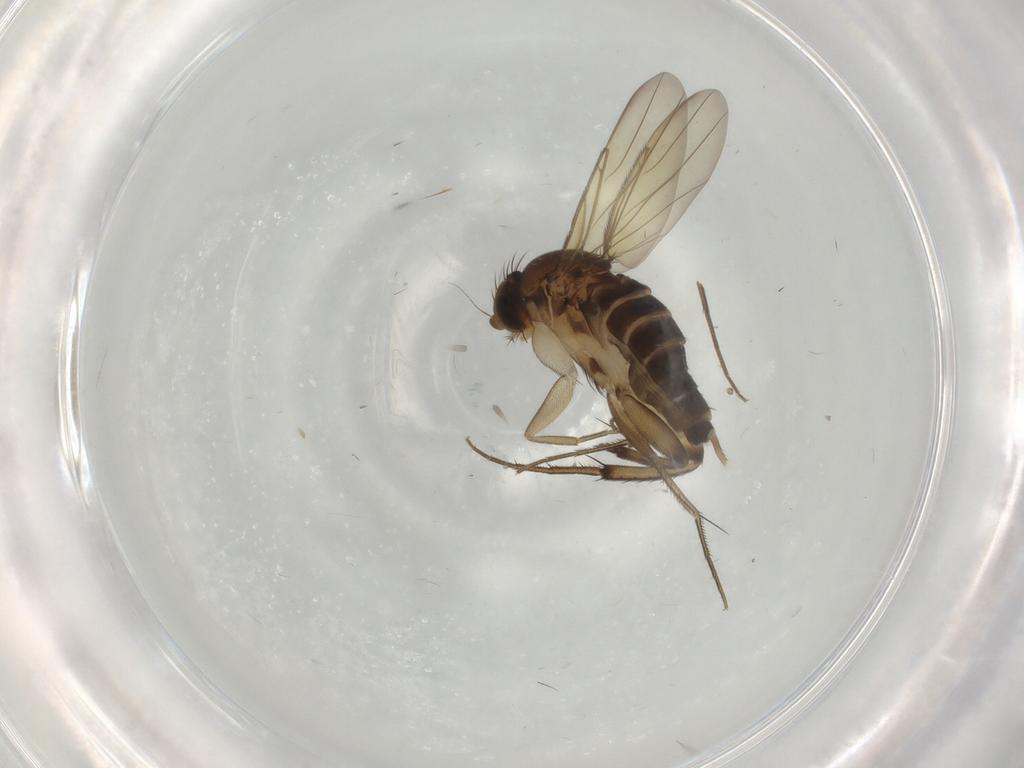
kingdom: Animalia
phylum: Arthropoda
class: Insecta
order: Diptera
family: Phoridae
